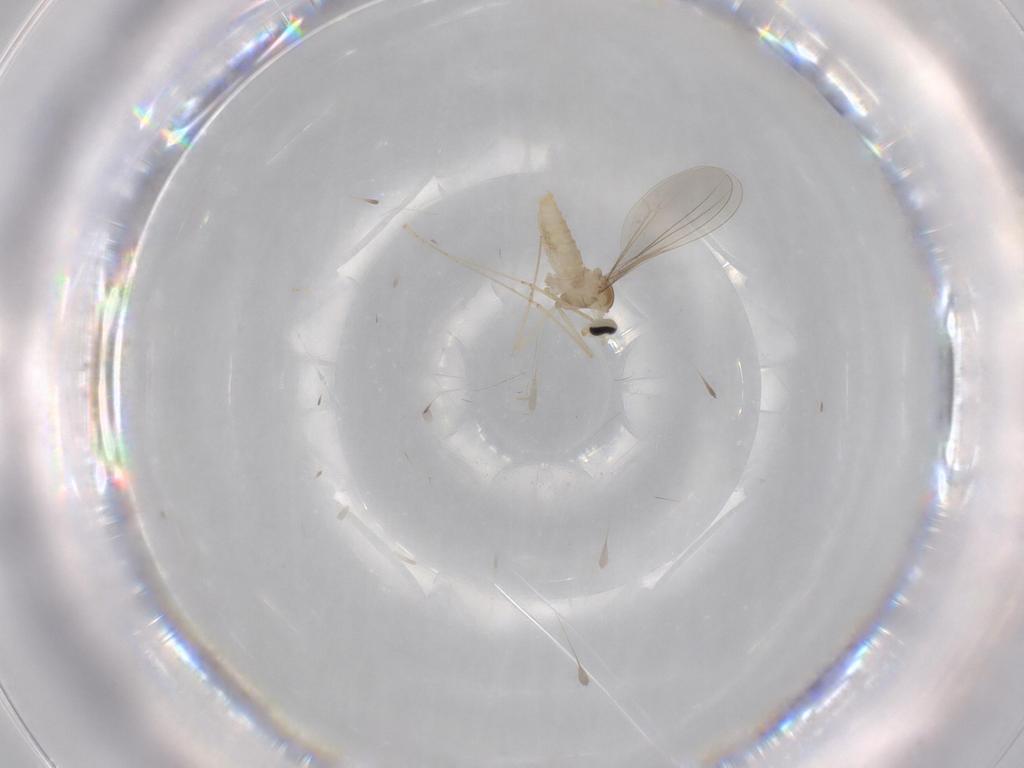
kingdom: Animalia
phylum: Arthropoda
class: Insecta
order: Diptera
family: Cecidomyiidae
